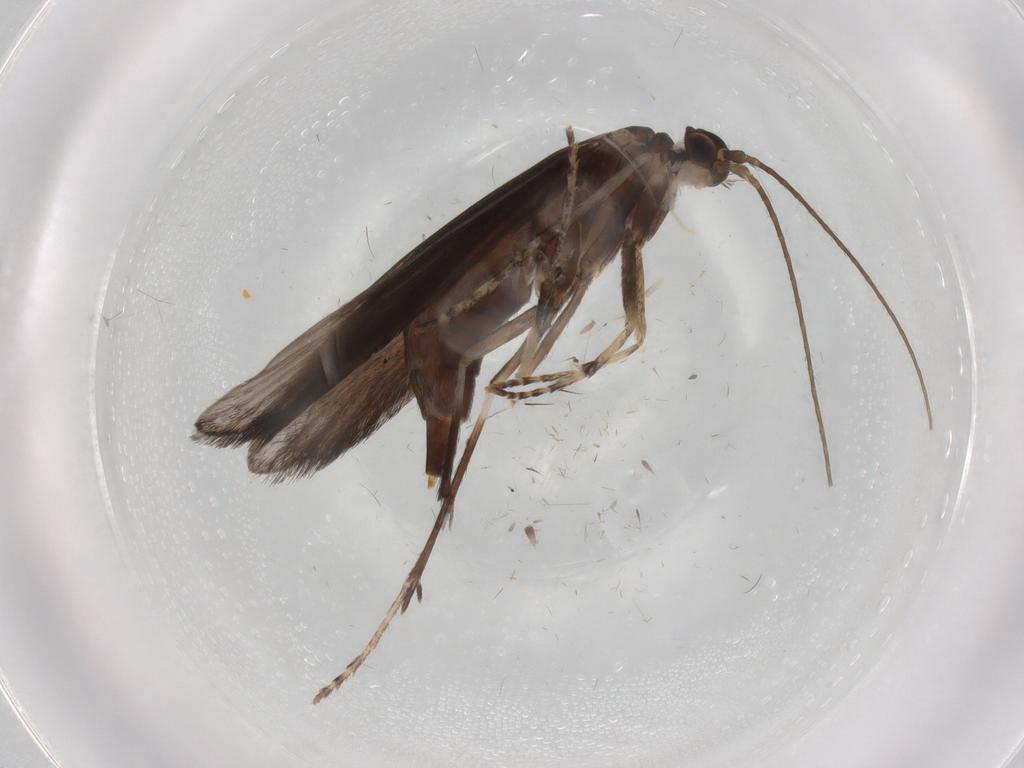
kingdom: Animalia
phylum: Arthropoda
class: Insecta
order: Trichoptera
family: Xiphocentronidae
